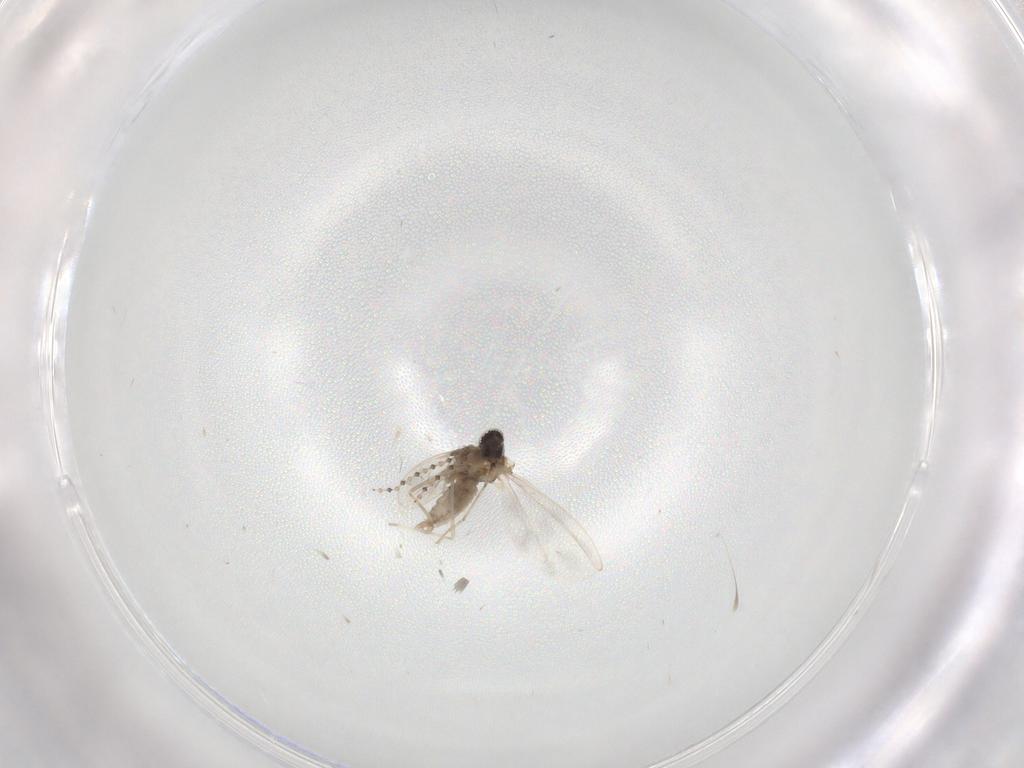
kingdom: Animalia
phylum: Arthropoda
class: Insecta
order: Diptera
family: Cecidomyiidae
